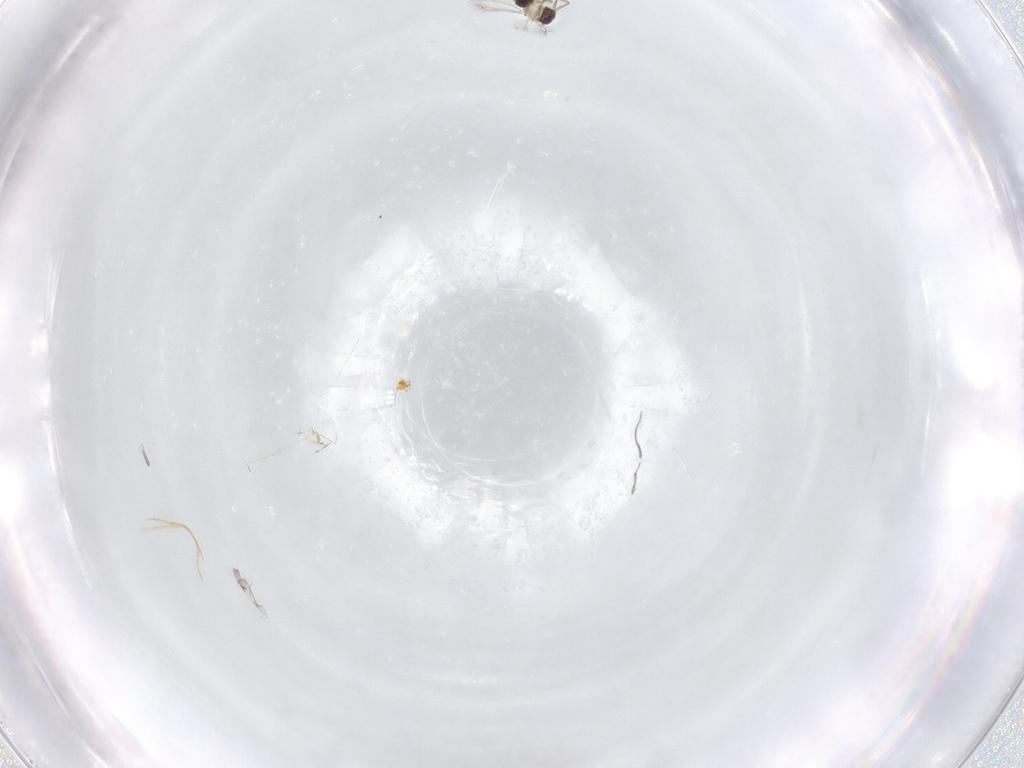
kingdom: Animalia
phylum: Arthropoda
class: Insecta
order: Hymenoptera
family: Mymaridae
